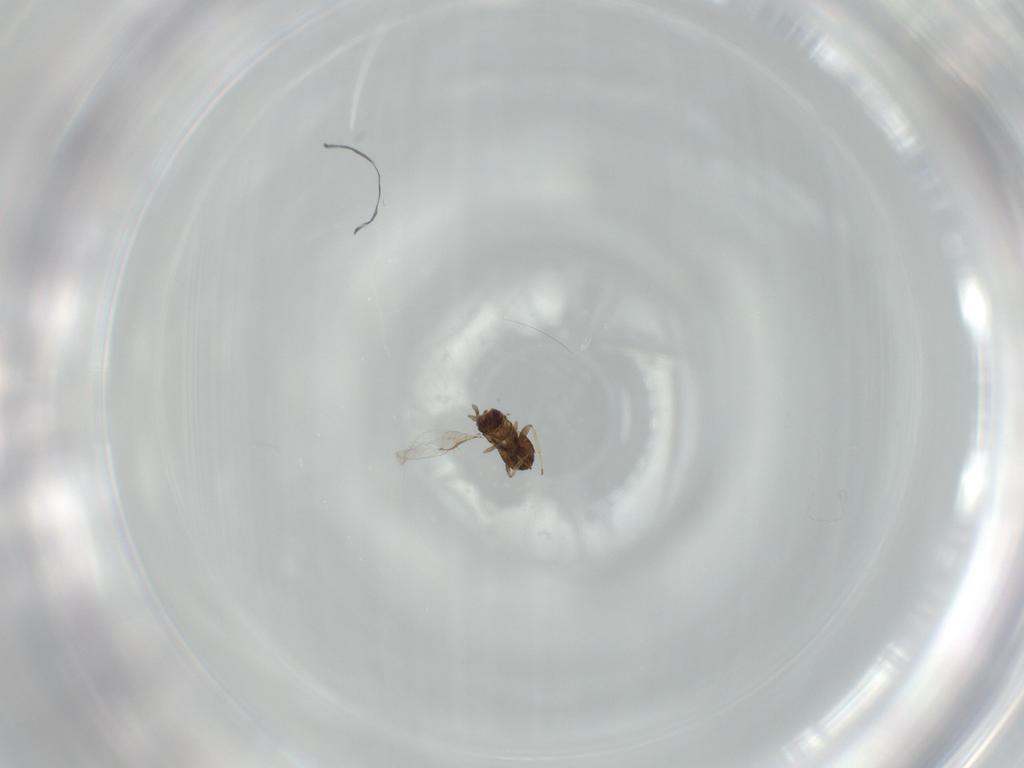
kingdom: Animalia
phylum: Arthropoda
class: Insecta
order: Hymenoptera
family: Trichogrammatidae
